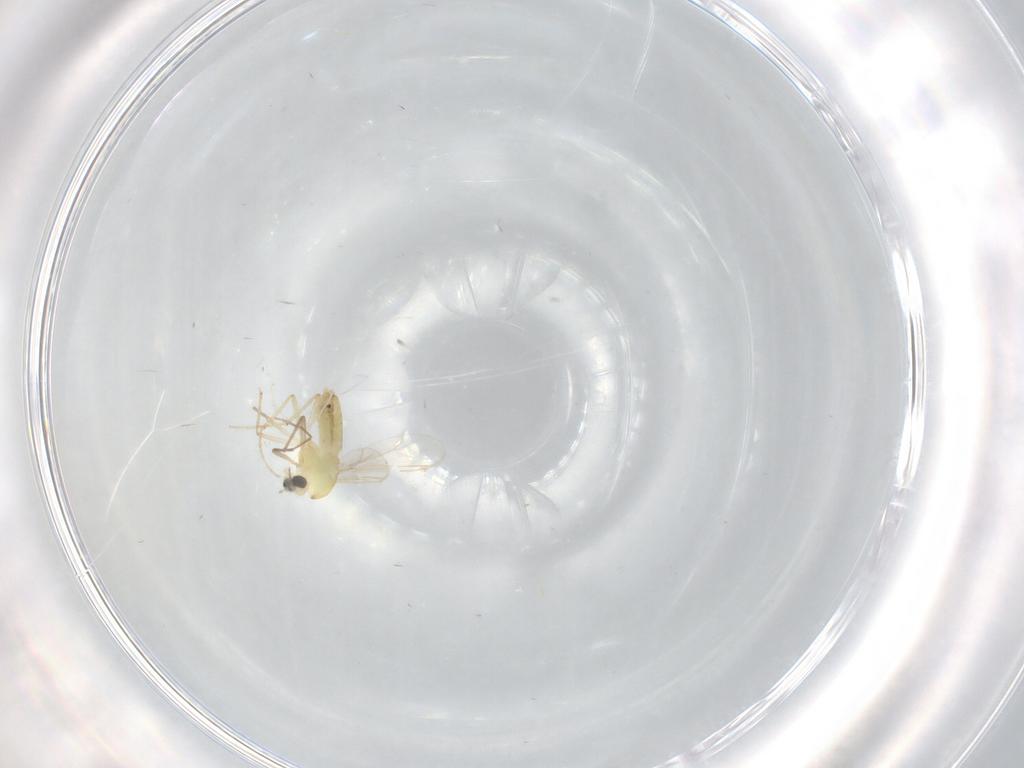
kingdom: Animalia
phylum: Arthropoda
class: Insecta
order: Diptera
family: Chironomidae
